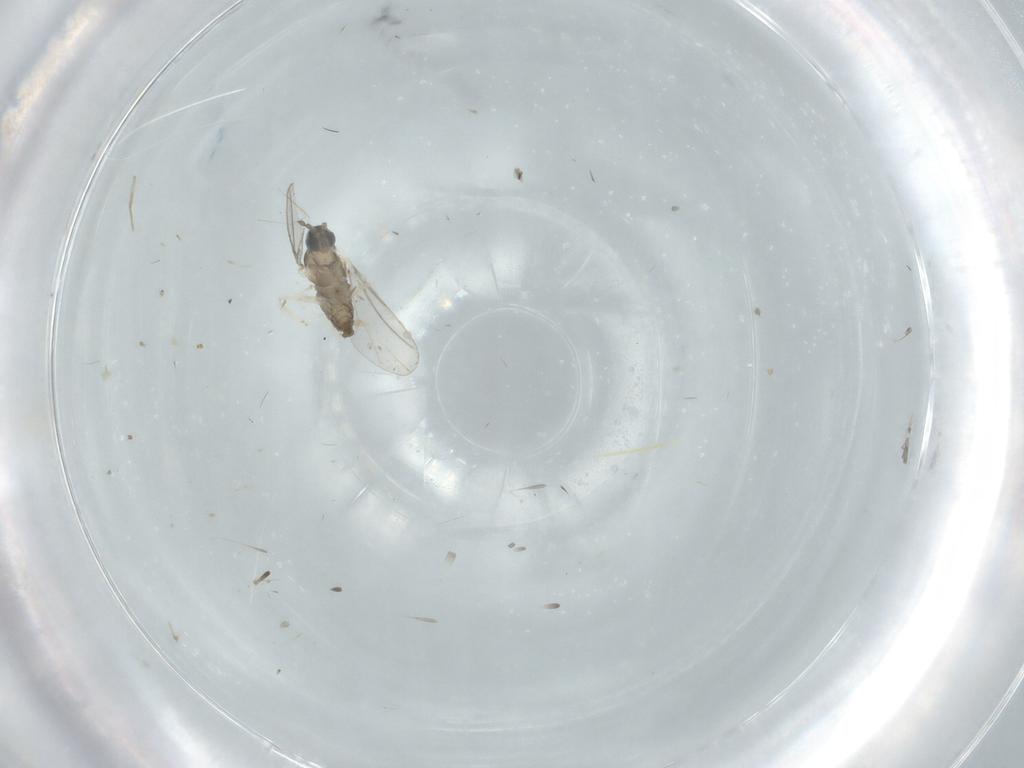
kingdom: Animalia
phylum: Arthropoda
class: Insecta
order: Diptera
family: Cecidomyiidae
